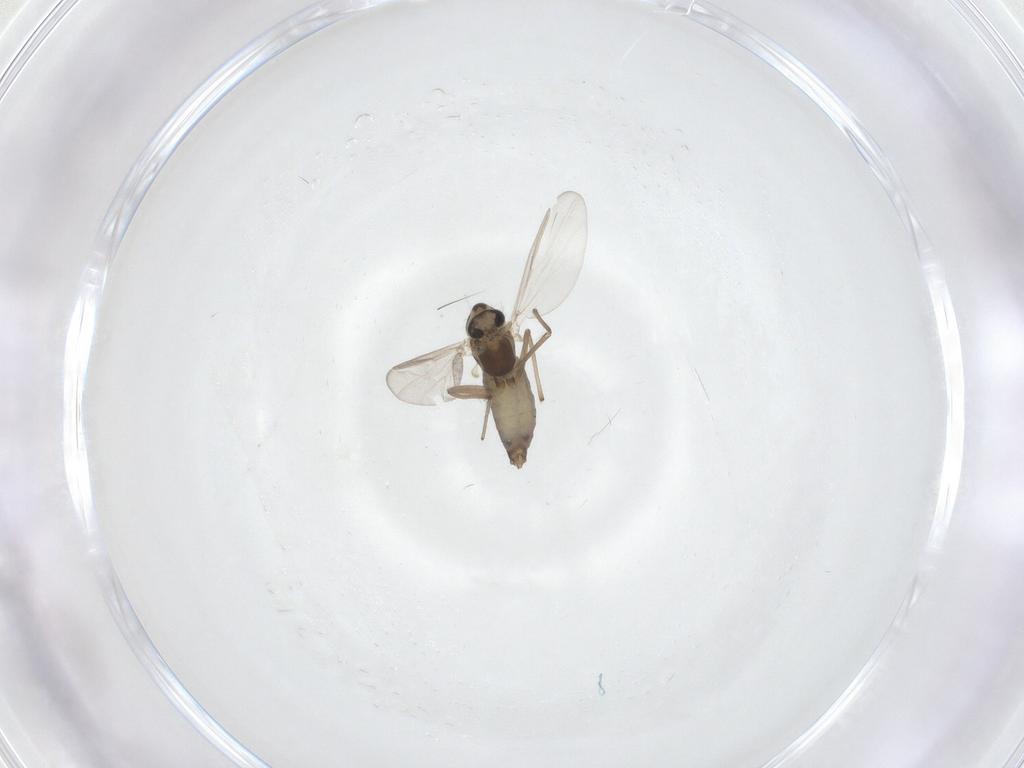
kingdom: Animalia
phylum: Arthropoda
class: Insecta
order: Diptera
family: Chironomidae
